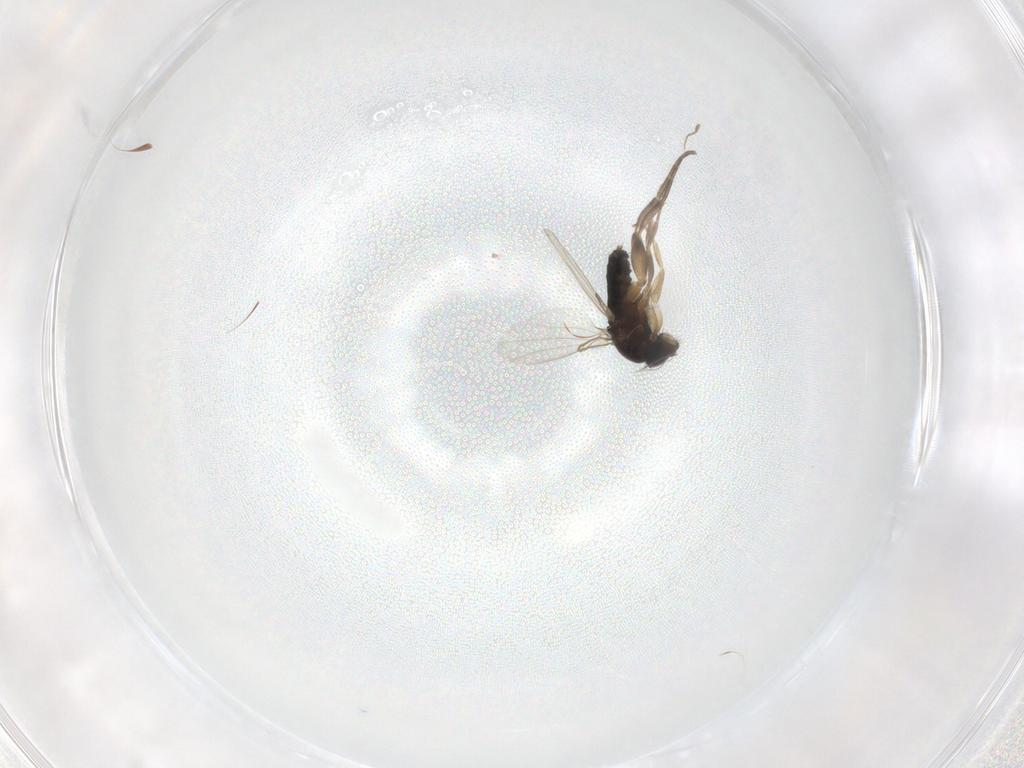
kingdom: Animalia
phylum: Arthropoda
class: Insecta
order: Diptera
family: Phoridae
